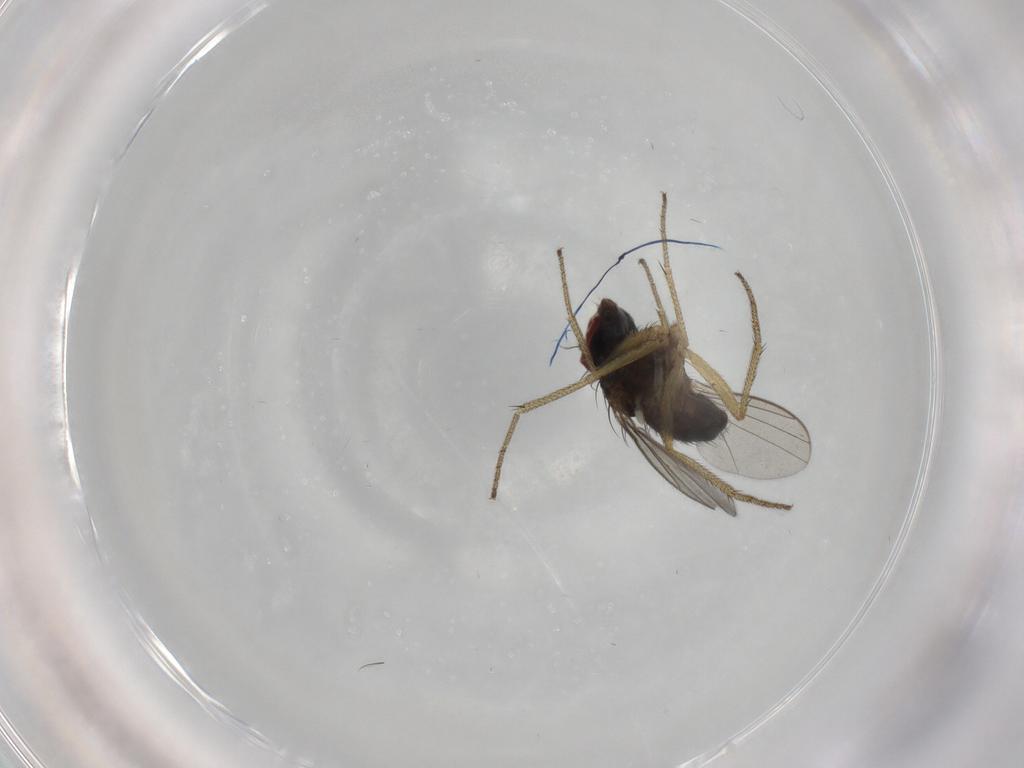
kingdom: Animalia
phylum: Arthropoda
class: Insecta
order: Diptera
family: Dolichopodidae
